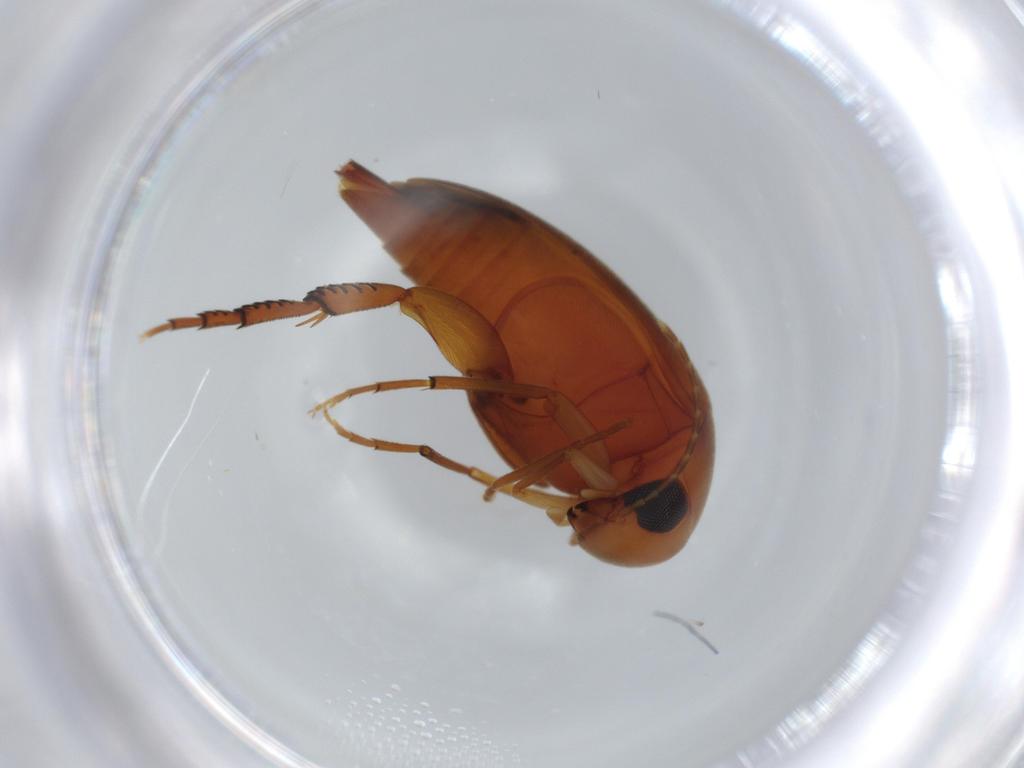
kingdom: Animalia
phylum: Arthropoda
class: Insecta
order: Coleoptera
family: Chrysomelidae
